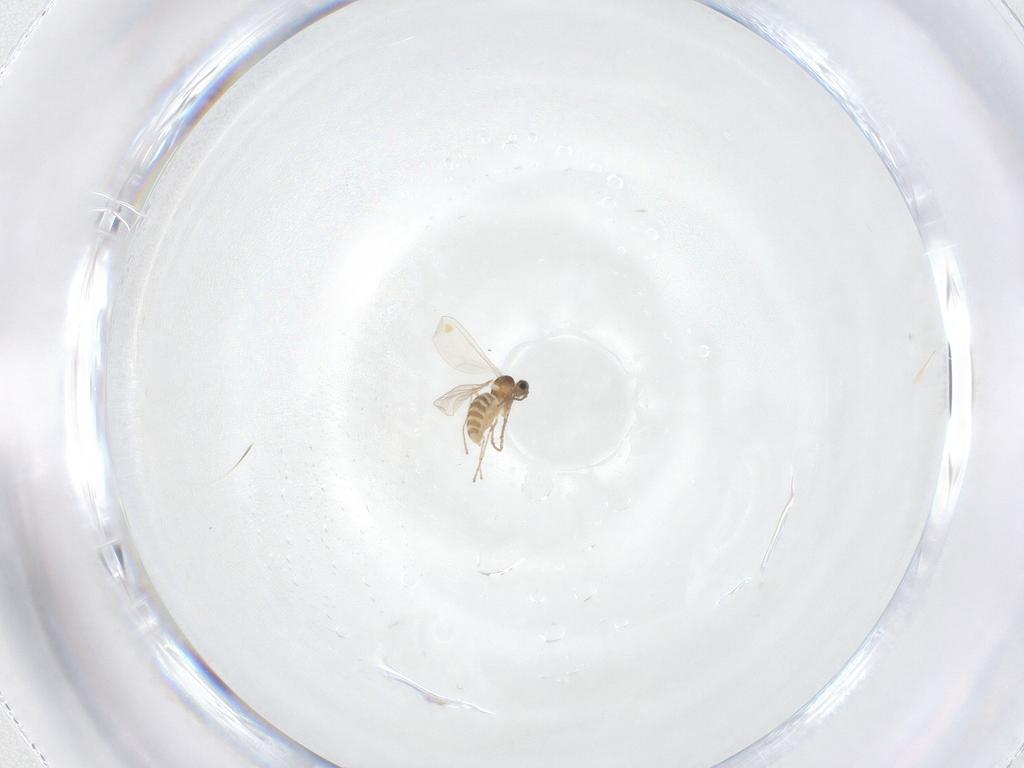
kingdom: Animalia
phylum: Arthropoda
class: Insecta
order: Diptera
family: Cecidomyiidae
